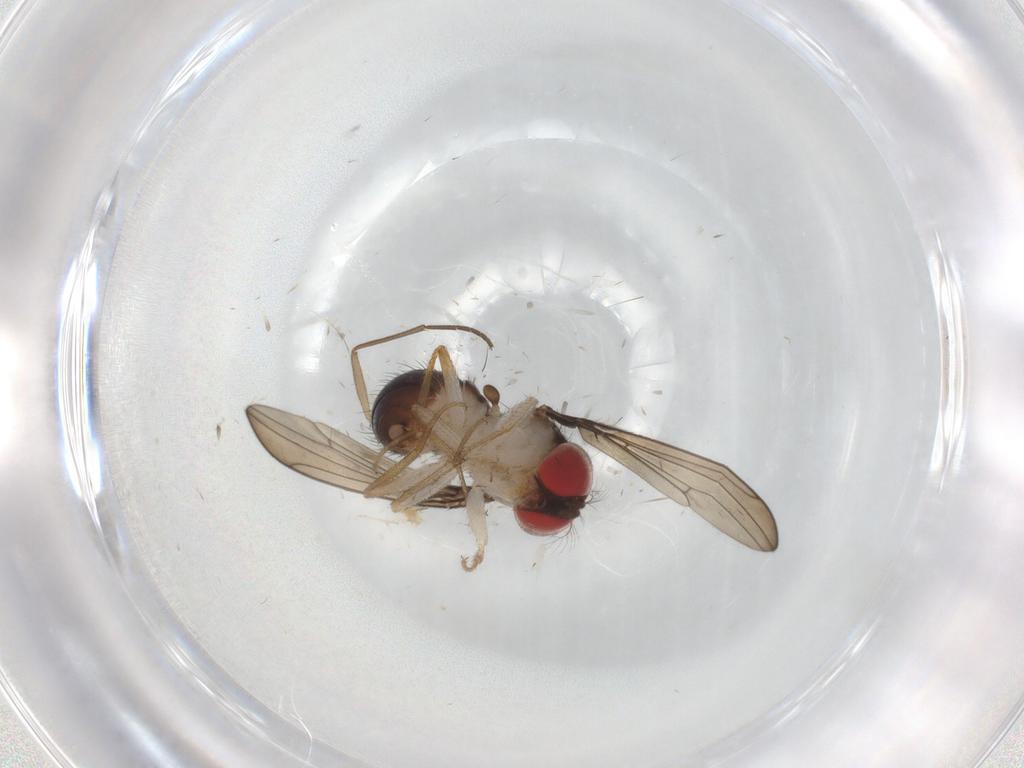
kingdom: Animalia
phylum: Arthropoda
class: Insecta
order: Diptera
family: Drosophilidae
